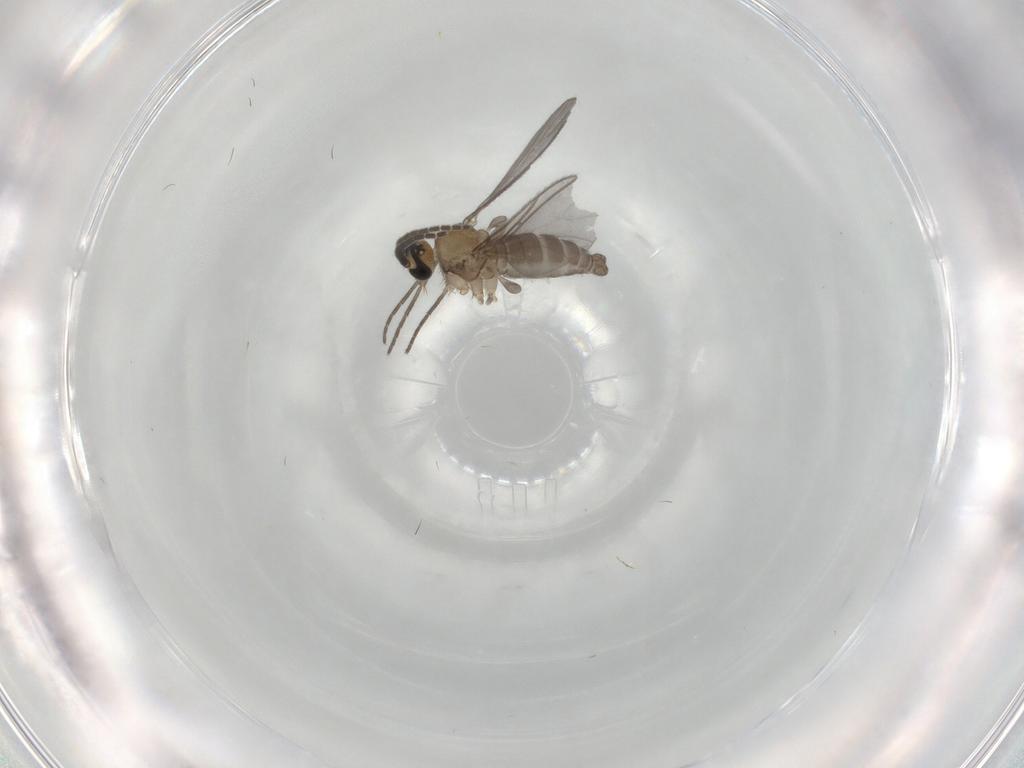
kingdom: Animalia
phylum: Arthropoda
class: Insecta
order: Diptera
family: Sciaridae
